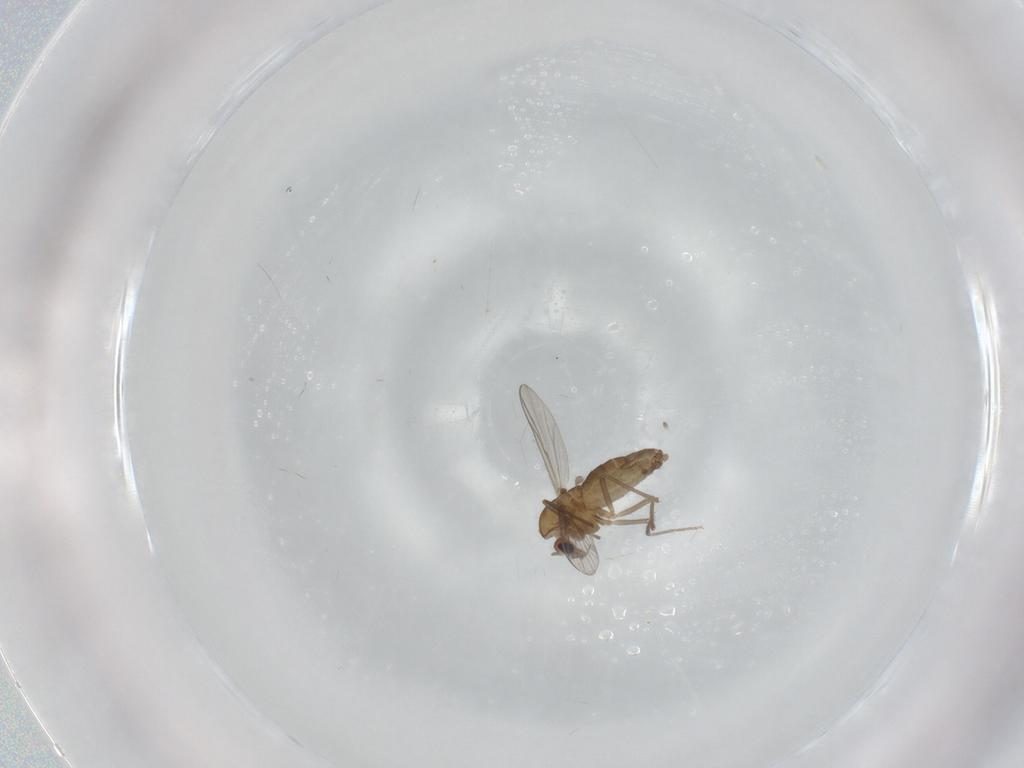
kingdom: Animalia
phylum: Arthropoda
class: Insecta
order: Diptera
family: Chironomidae
